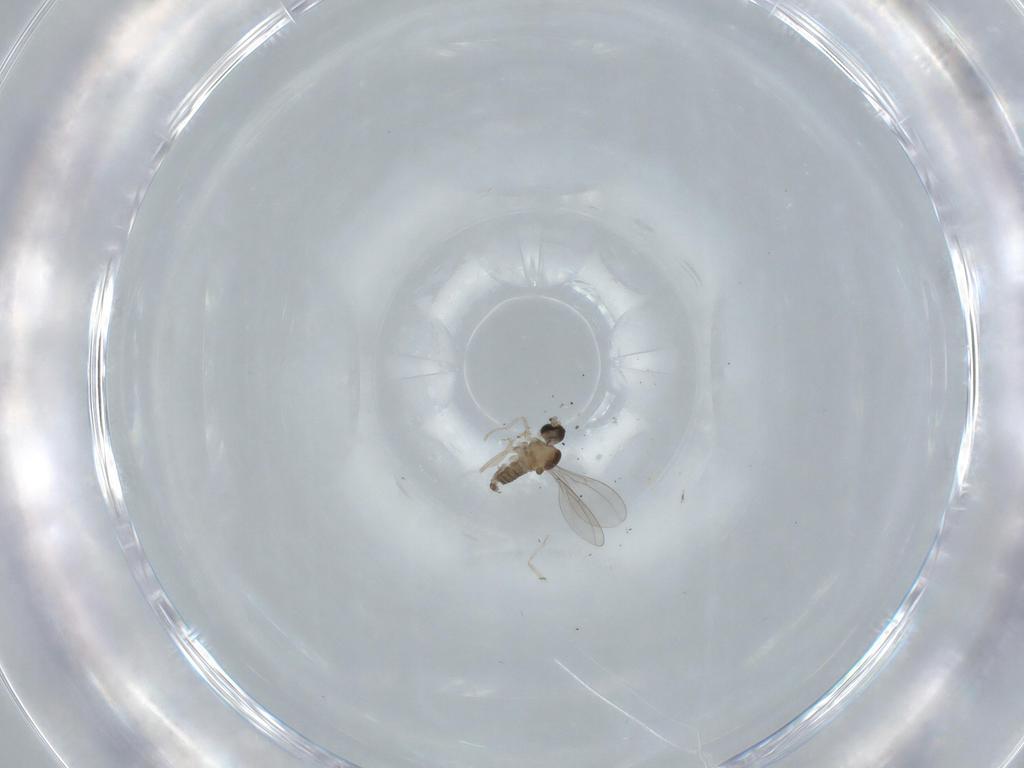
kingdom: Animalia
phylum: Arthropoda
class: Insecta
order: Diptera
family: Cecidomyiidae
